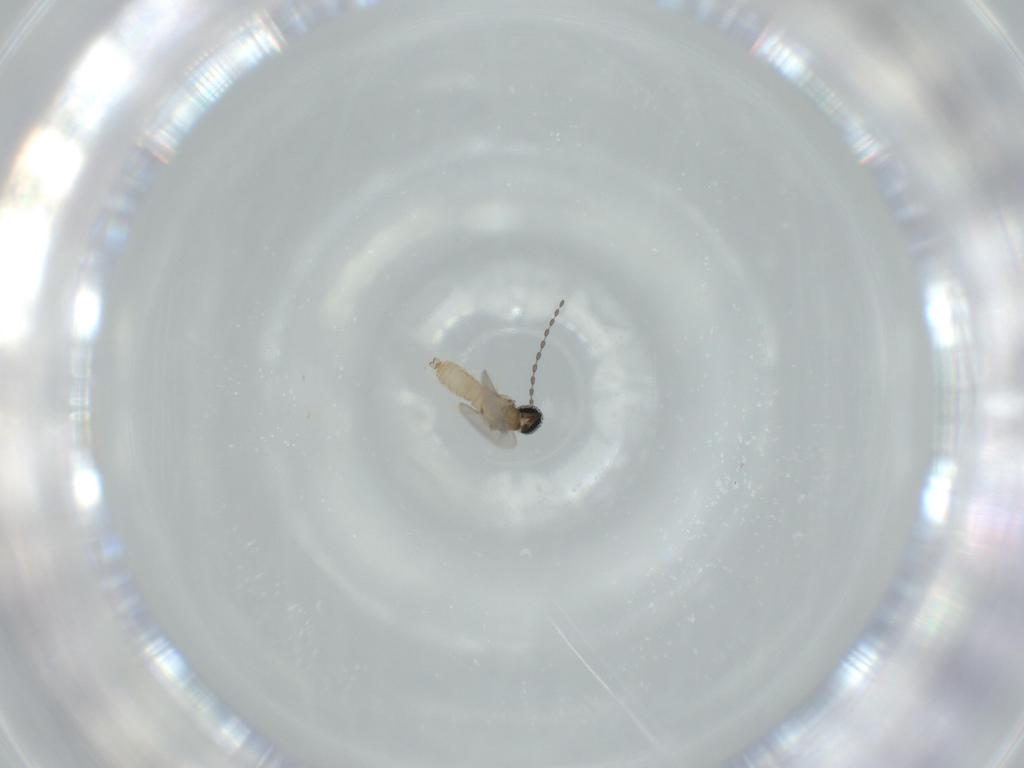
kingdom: Animalia
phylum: Arthropoda
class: Insecta
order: Diptera
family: Cecidomyiidae
